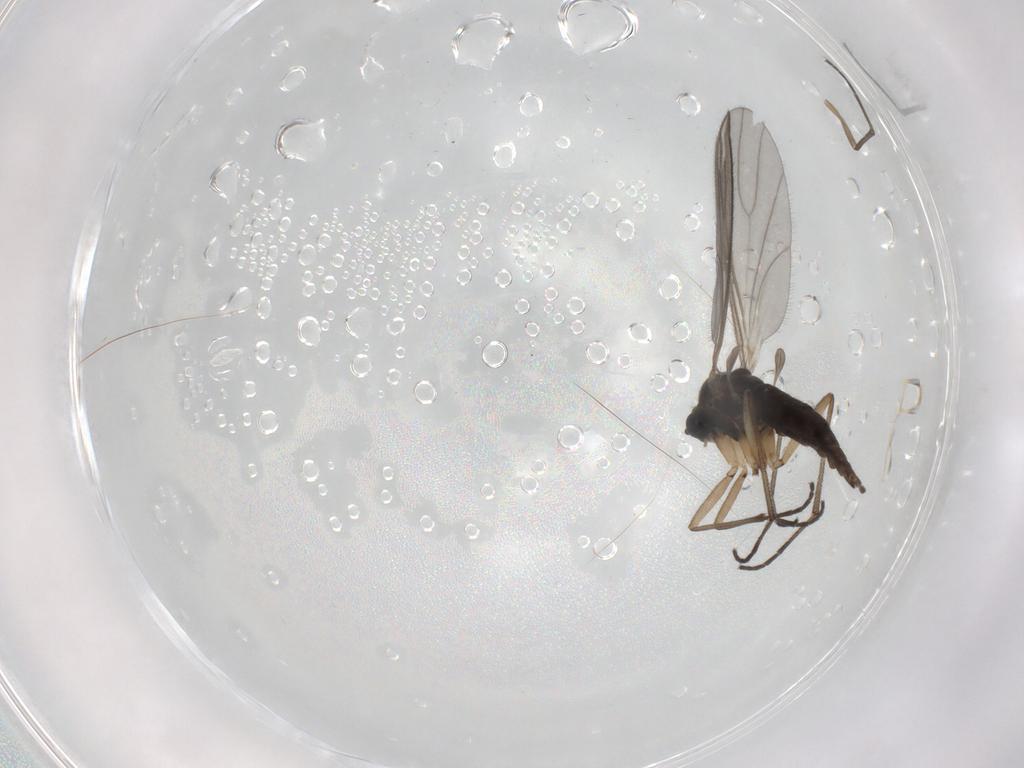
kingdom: Animalia
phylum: Arthropoda
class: Insecta
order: Diptera
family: Sciaridae
